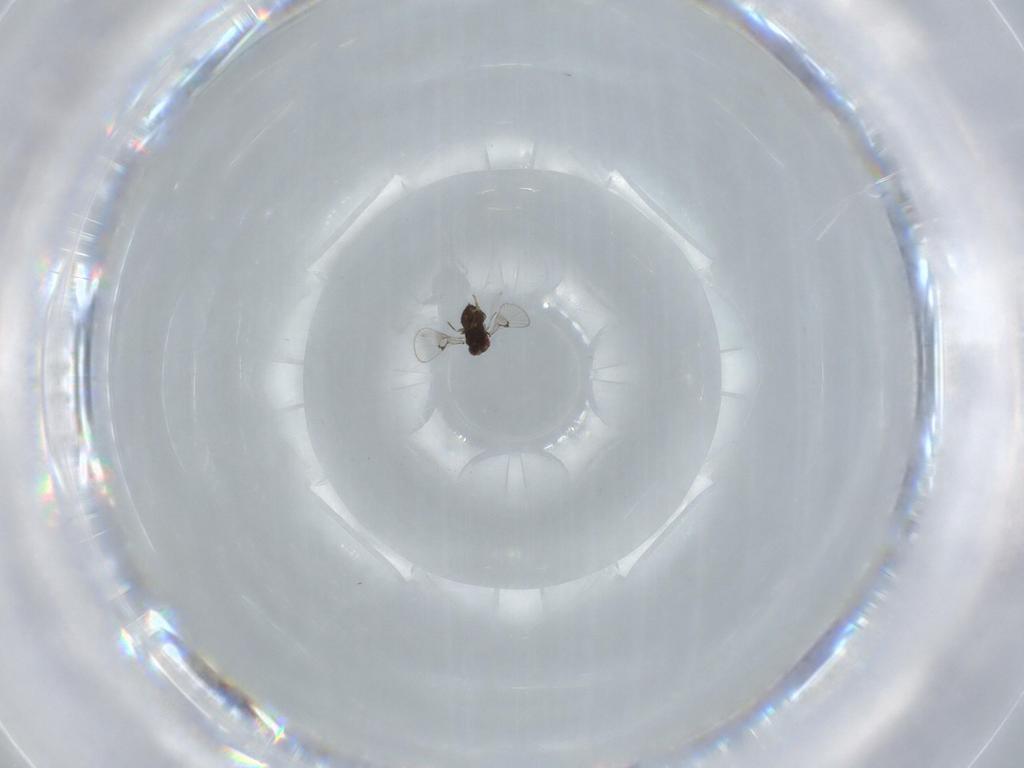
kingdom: Animalia
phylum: Arthropoda
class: Insecta
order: Hymenoptera
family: Trichogrammatidae
